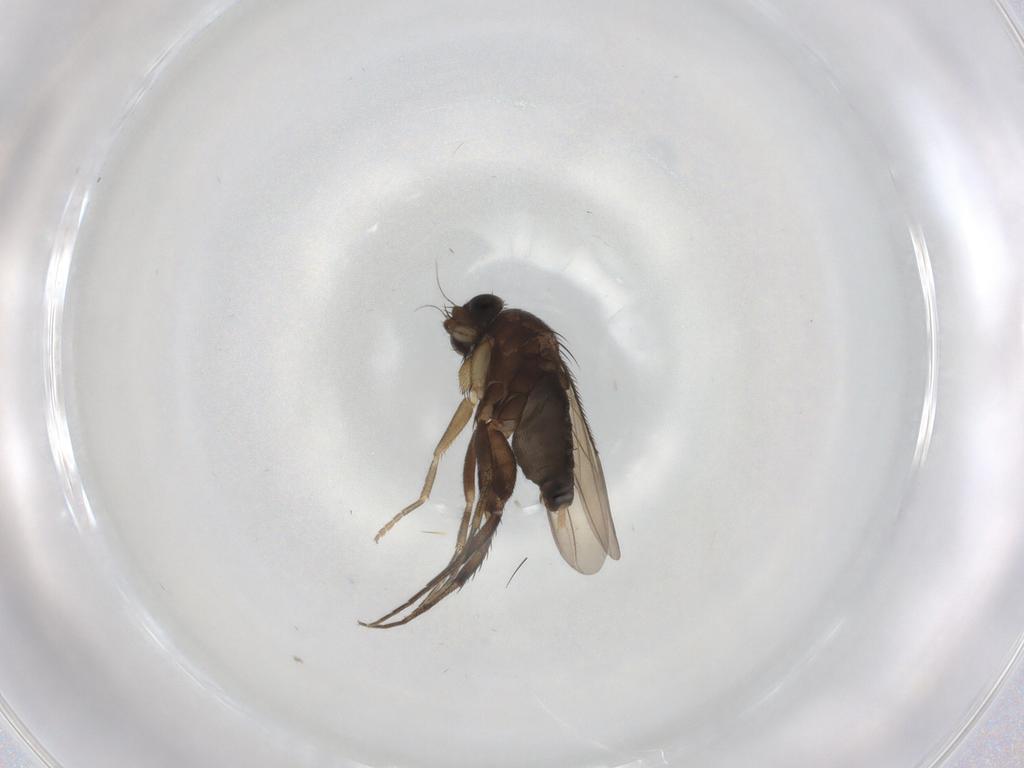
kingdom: Animalia
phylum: Arthropoda
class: Insecta
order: Diptera
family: Phoridae
